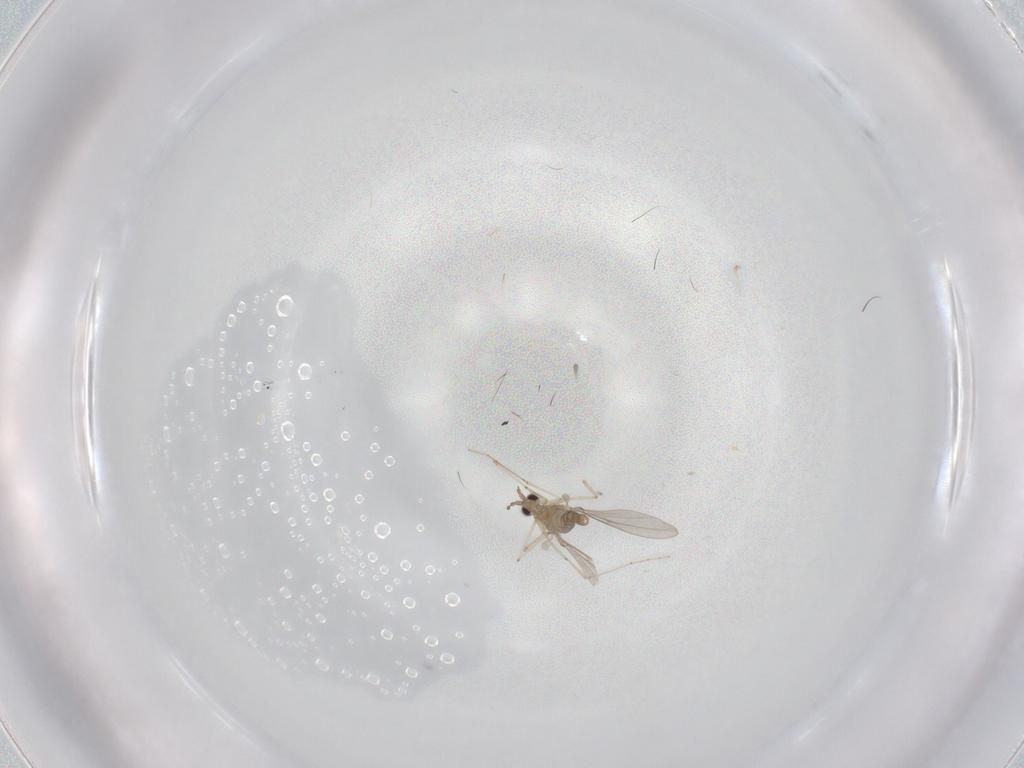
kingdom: Animalia
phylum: Arthropoda
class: Insecta
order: Diptera
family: Cecidomyiidae
